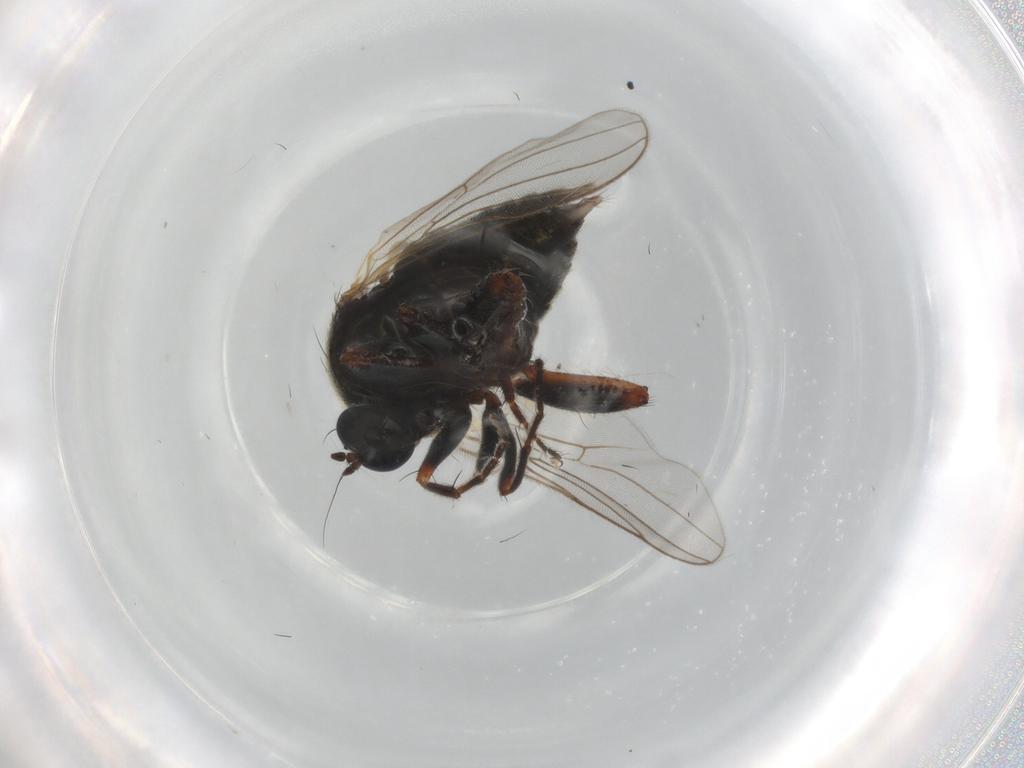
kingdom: Animalia
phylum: Arthropoda
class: Insecta
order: Diptera
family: Hybotidae
